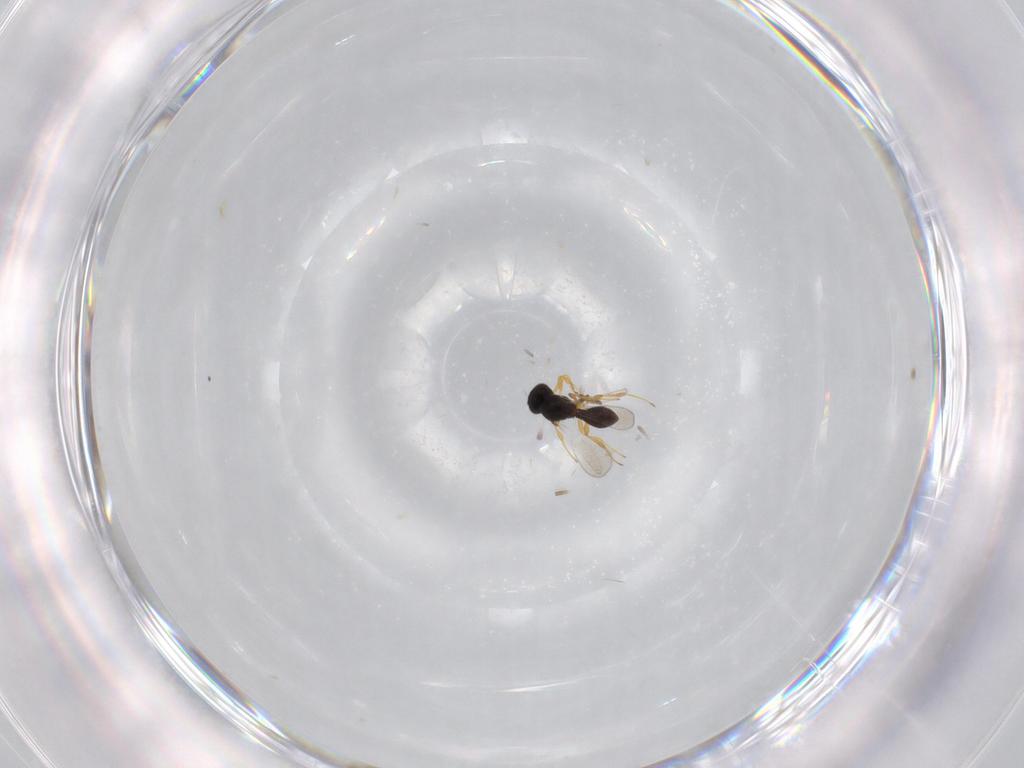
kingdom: Animalia
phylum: Arthropoda
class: Insecta
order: Hymenoptera
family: Platygastridae
